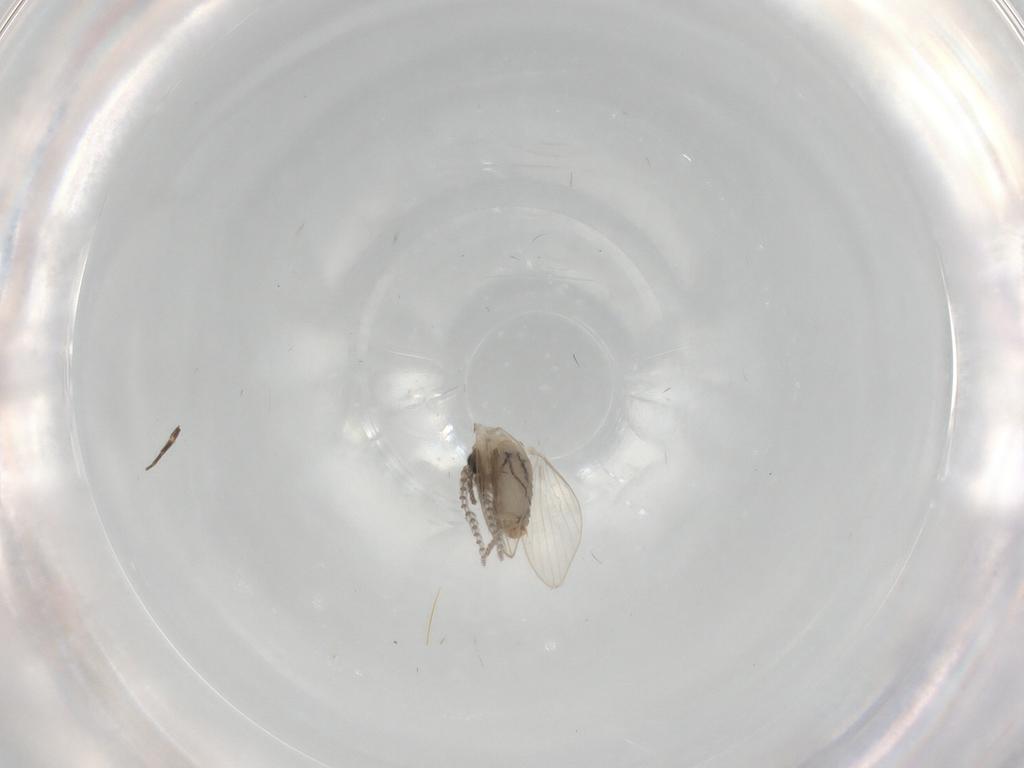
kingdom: Animalia
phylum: Arthropoda
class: Insecta
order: Diptera
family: Psychodidae
